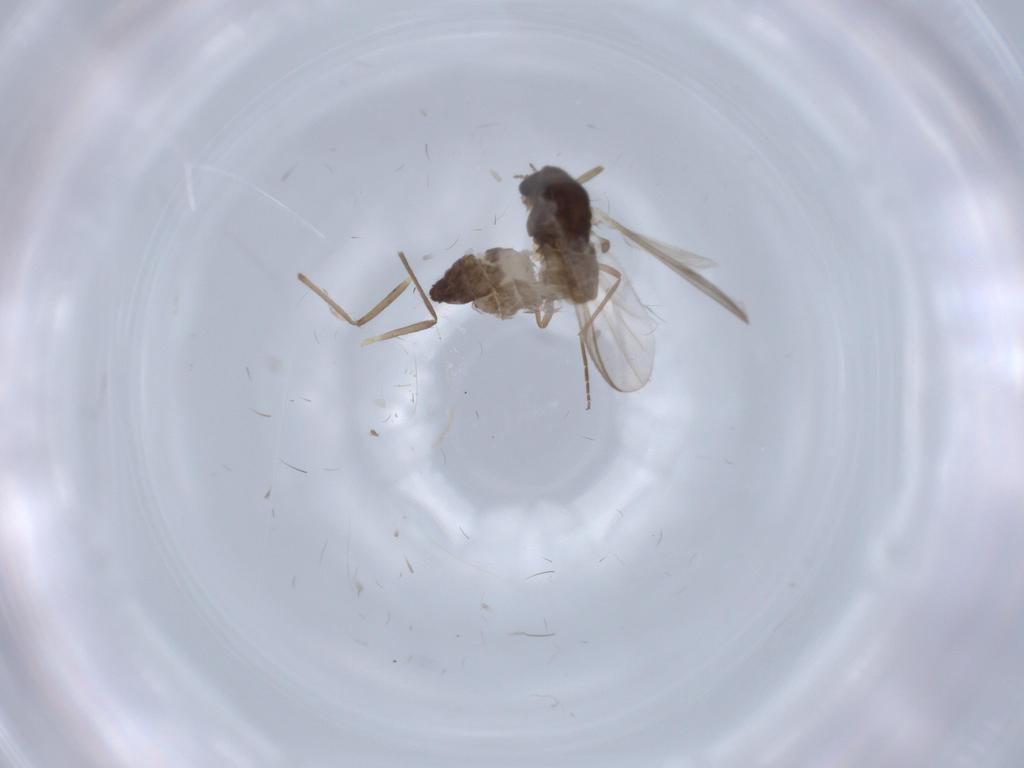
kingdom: Animalia
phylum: Arthropoda
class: Insecta
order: Diptera
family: Chironomidae
